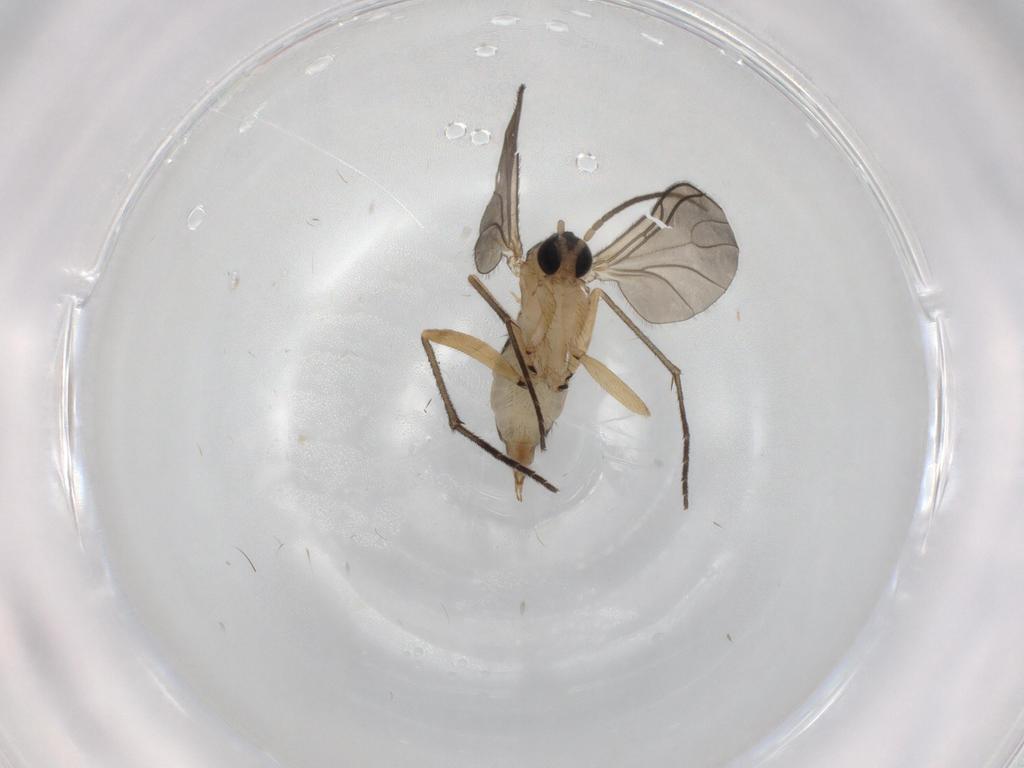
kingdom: Animalia
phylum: Arthropoda
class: Insecta
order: Diptera
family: Sciaridae
